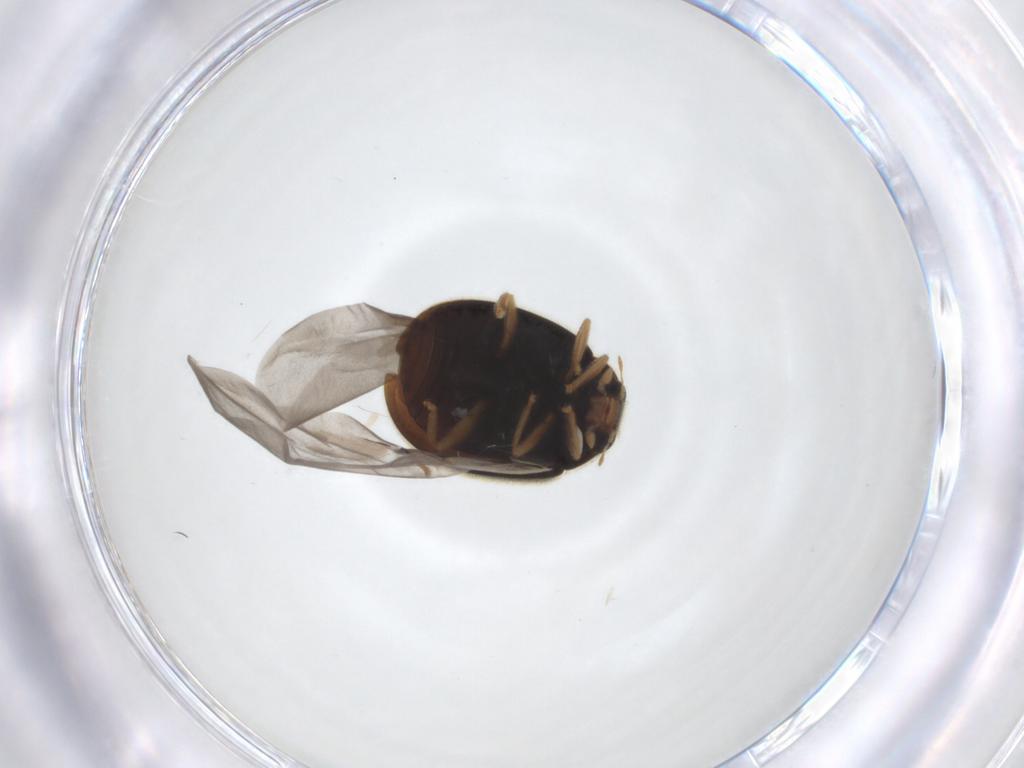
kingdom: Animalia
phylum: Arthropoda
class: Insecta
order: Coleoptera
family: Coccinellidae
